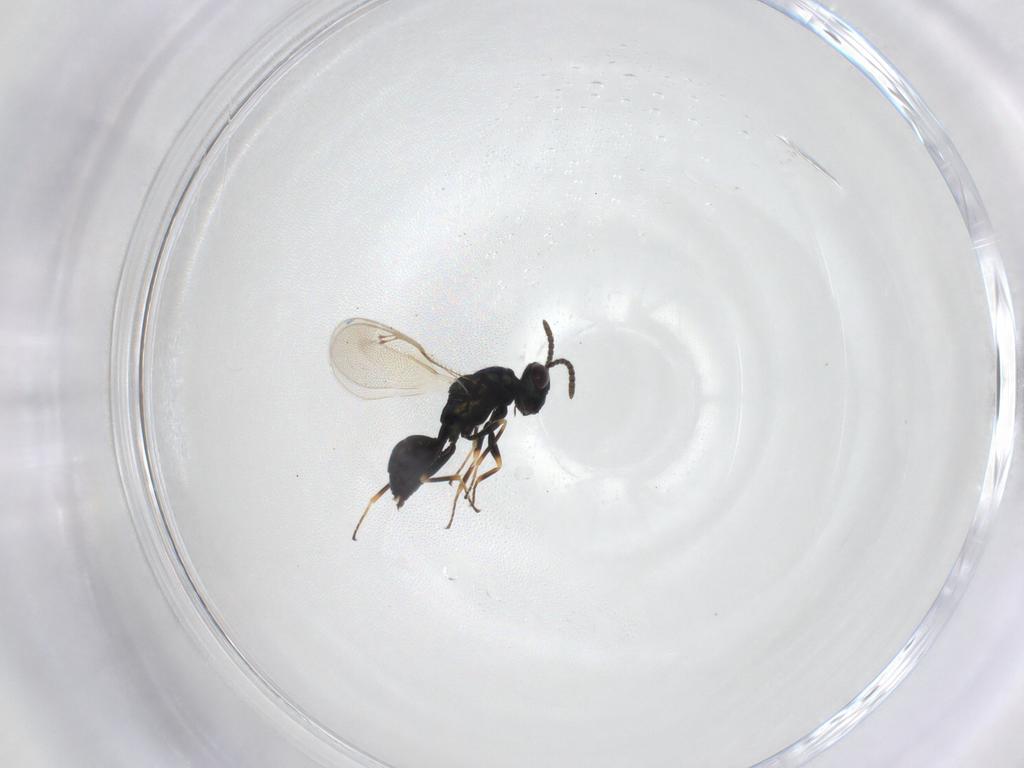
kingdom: Animalia
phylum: Arthropoda
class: Insecta
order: Hymenoptera
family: Pteromalidae
